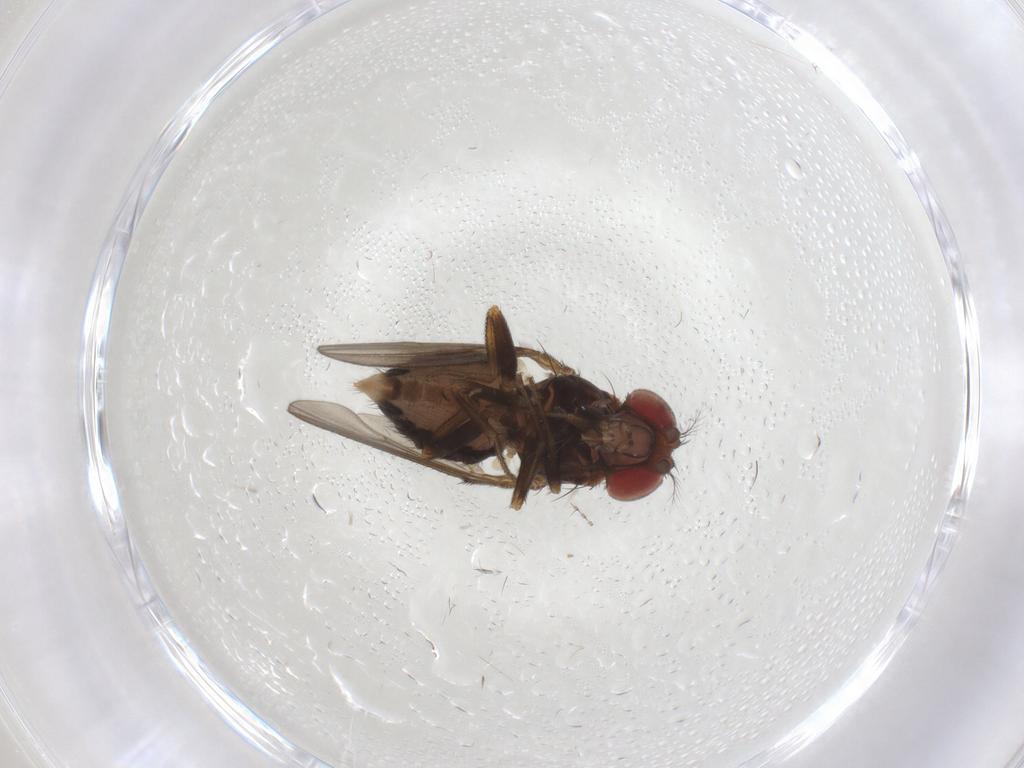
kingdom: Animalia
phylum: Arthropoda
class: Insecta
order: Diptera
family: Drosophilidae
